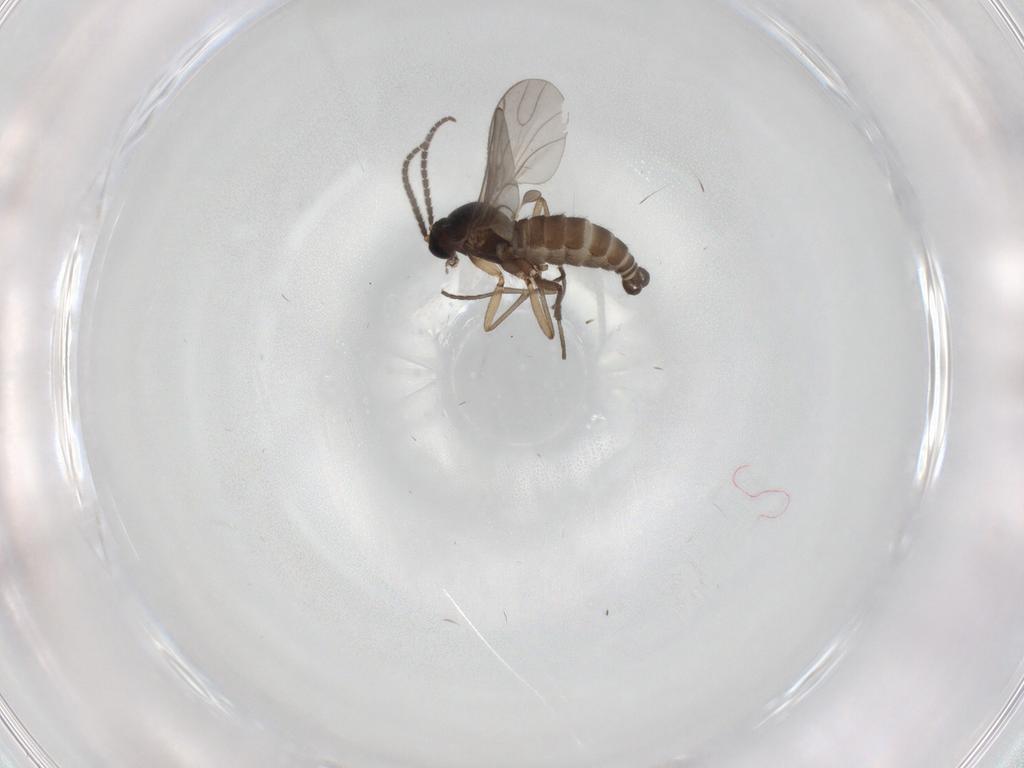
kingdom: Animalia
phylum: Arthropoda
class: Insecta
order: Diptera
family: Sciaridae
